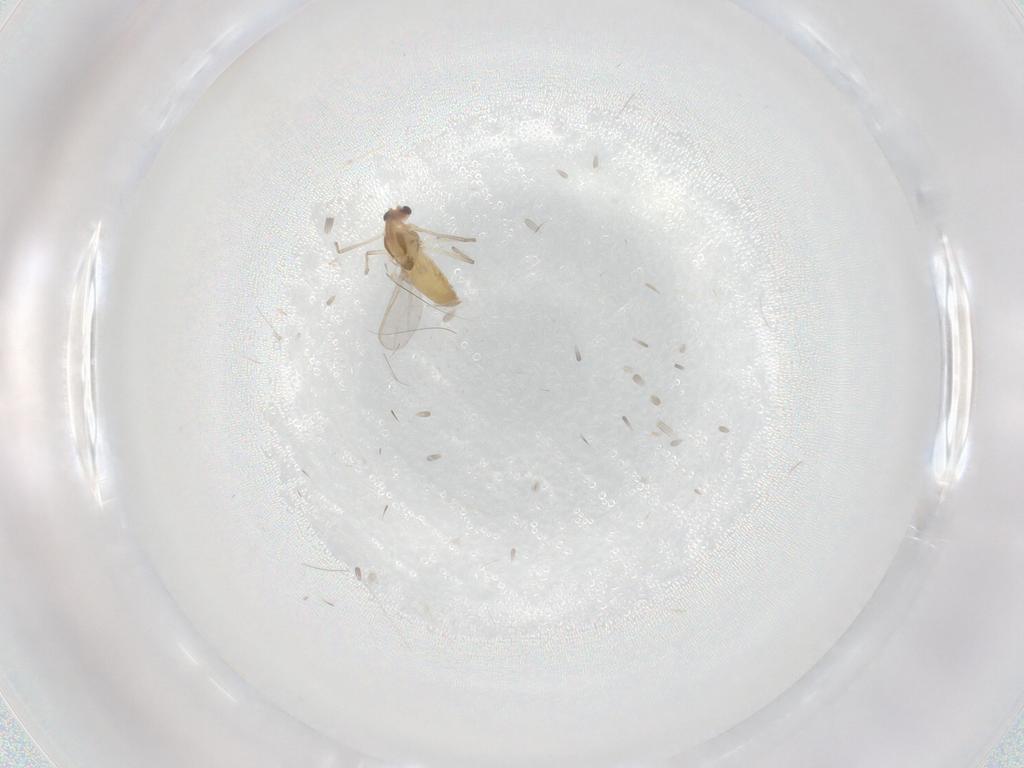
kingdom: Animalia
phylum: Arthropoda
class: Insecta
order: Diptera
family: Chironomidae
